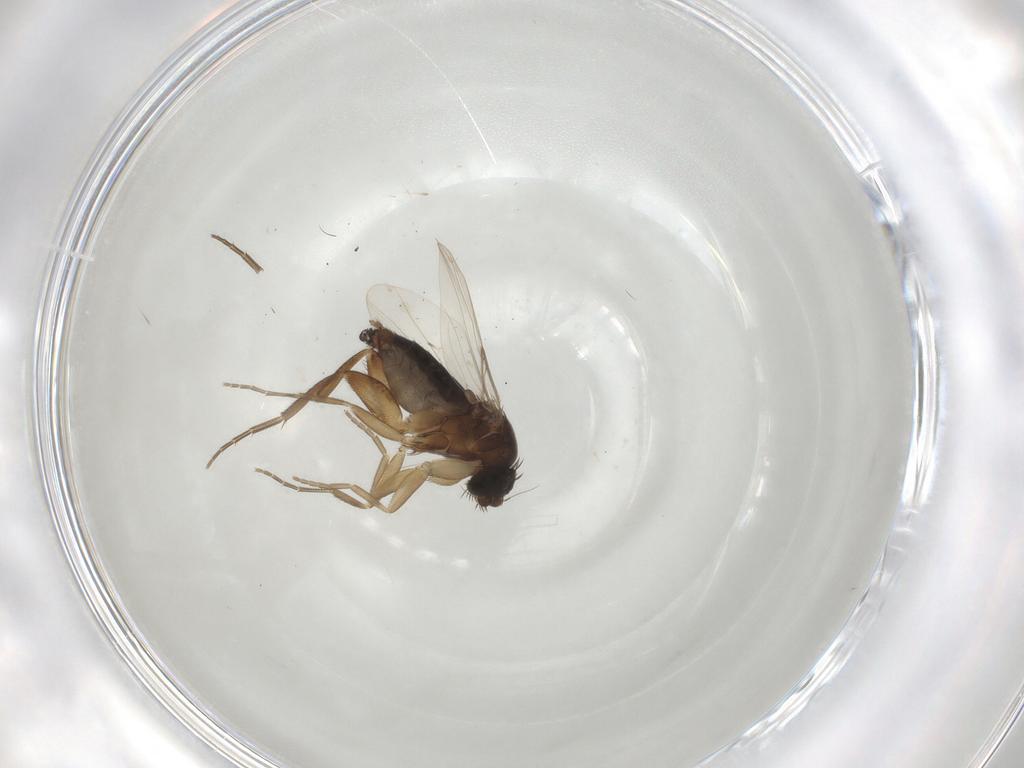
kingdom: Animalia
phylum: Arthropoda
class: Insecta
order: Diptera
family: Phoridae
